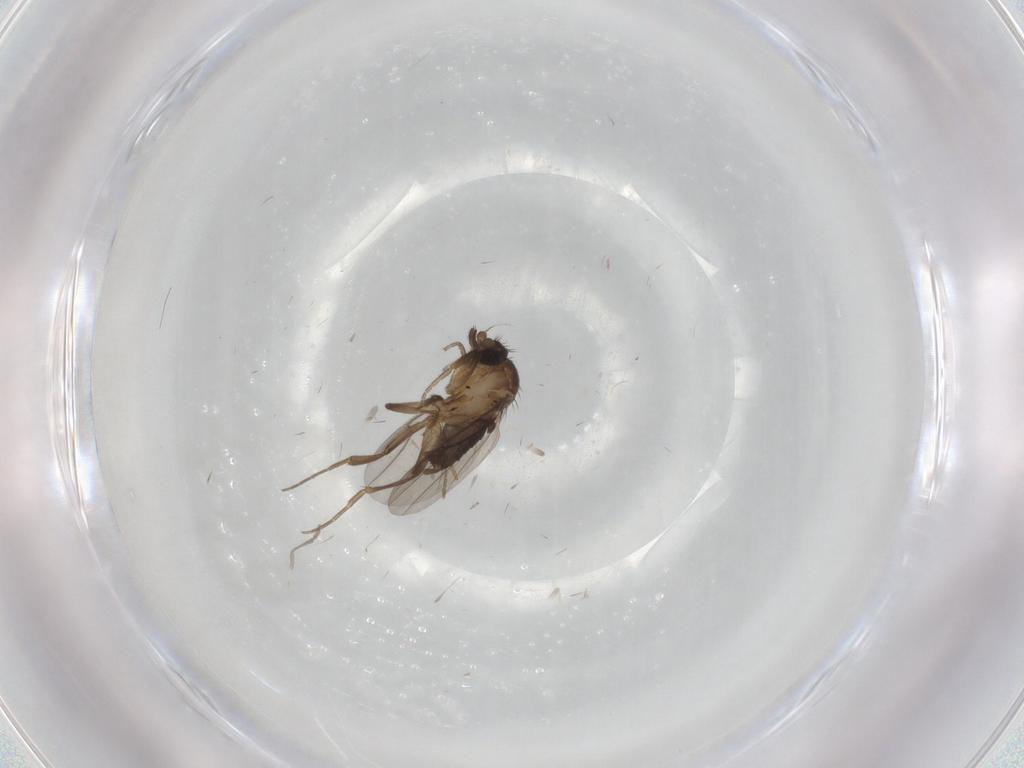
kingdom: Animalia
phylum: Arthropoda
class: Insecta
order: Diptera
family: Phoridae
